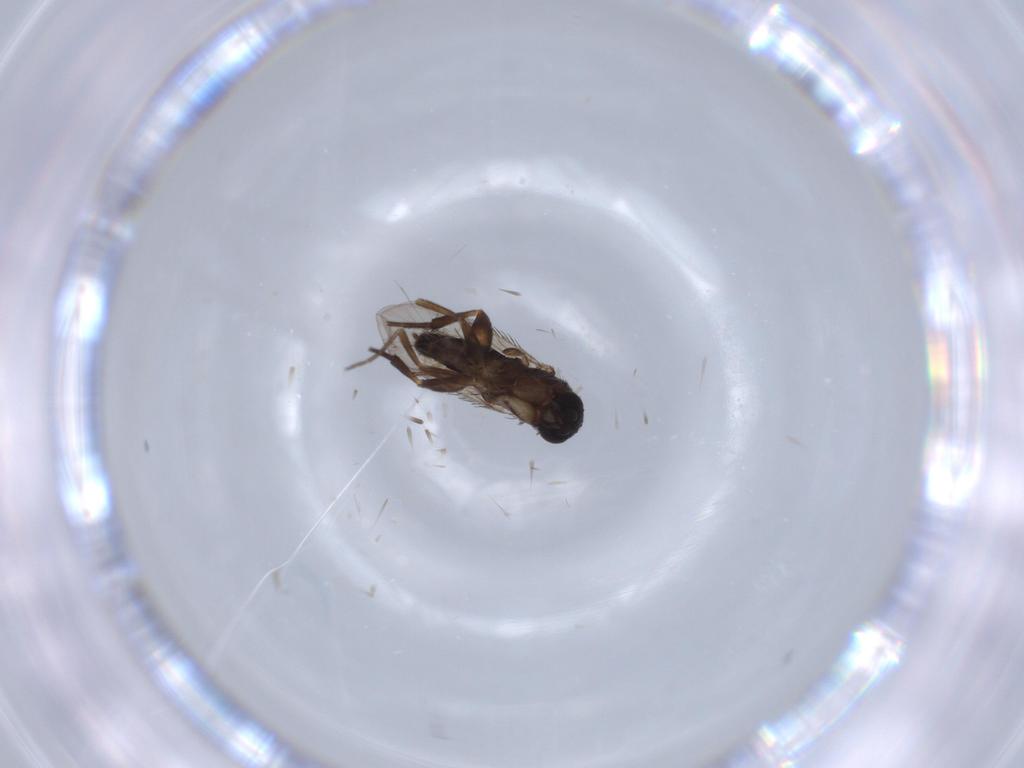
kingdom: Animalia
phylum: Arthropoda
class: Insecta
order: Diptera
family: Phoridae
